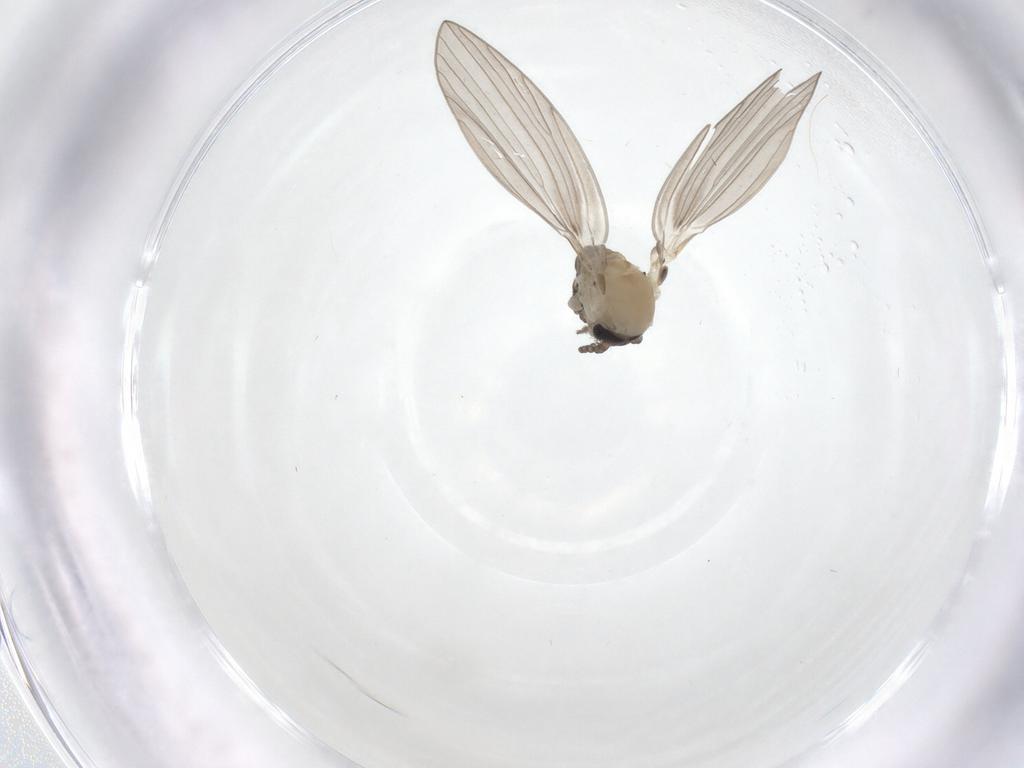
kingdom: Animalia
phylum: Arthropoda
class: Insecta
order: Diptera
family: Psychodidae
